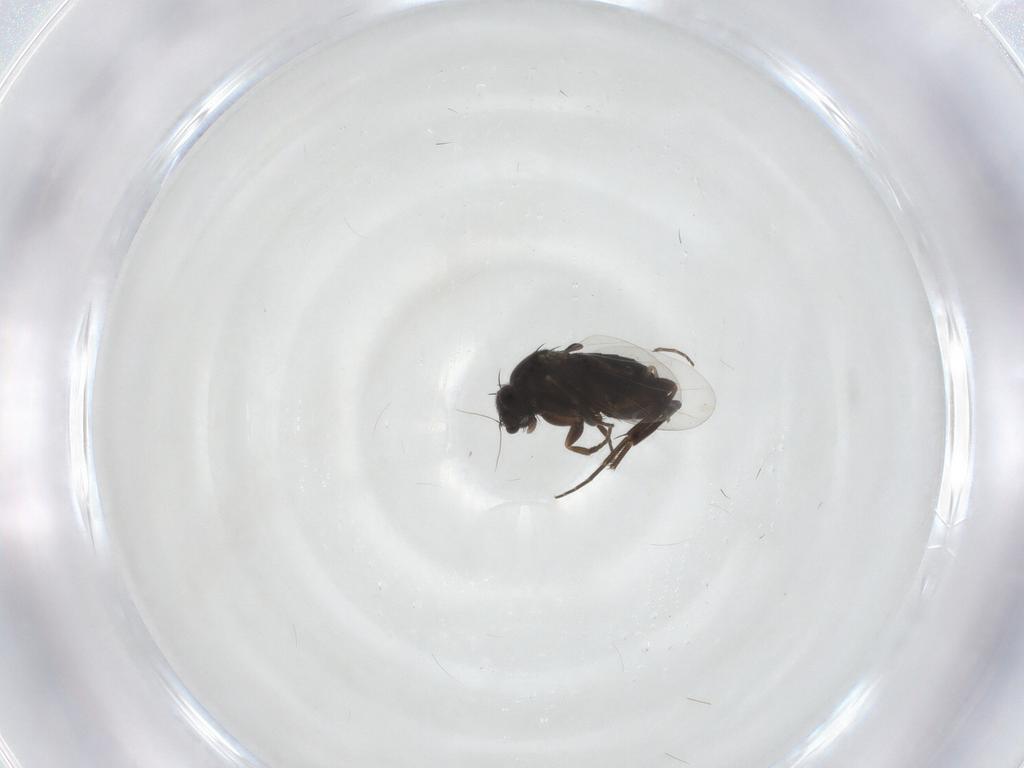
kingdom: Animalia
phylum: Arthropoda
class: Insecta
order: Diptera
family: Phoridae
